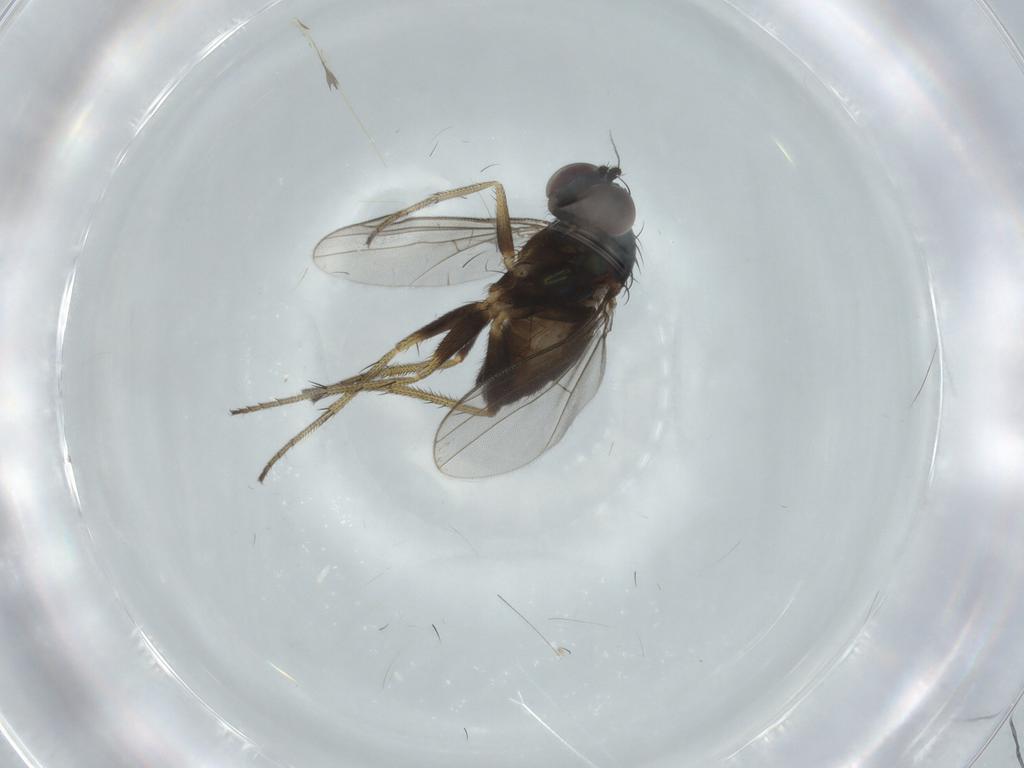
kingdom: Animalia
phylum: Arthropoda
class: Insecta
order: Diptera
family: Dolichopodidae
